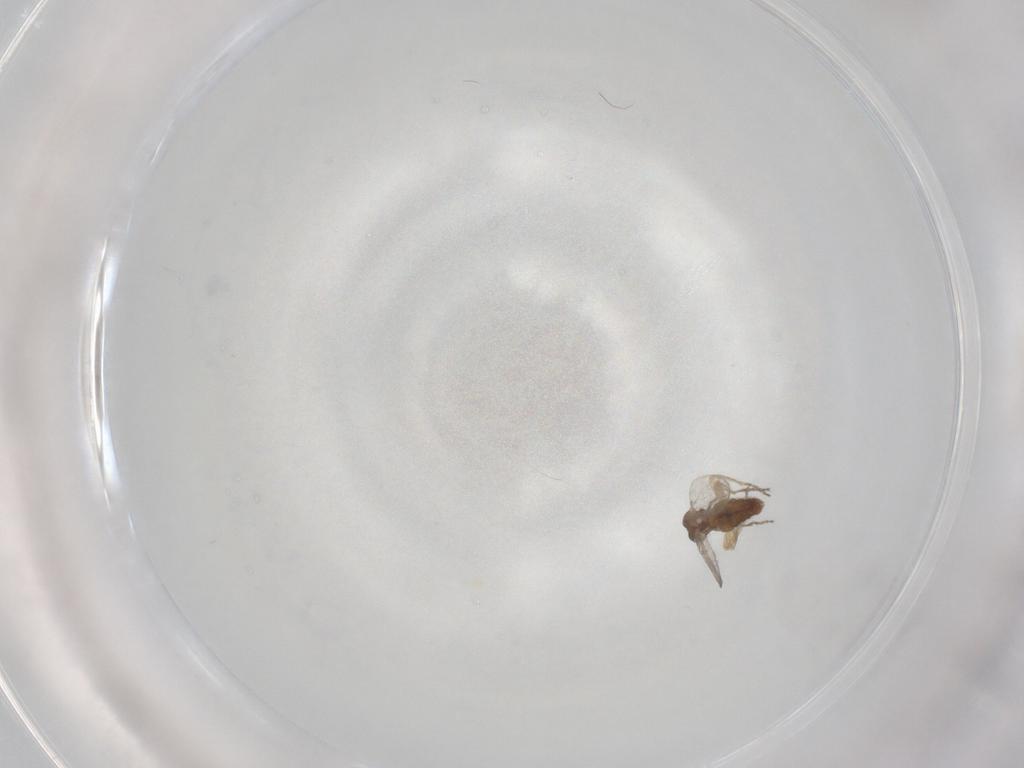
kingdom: Animalia
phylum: Arthropoda
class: Insecta
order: Diptera
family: Ceratopogonidae
